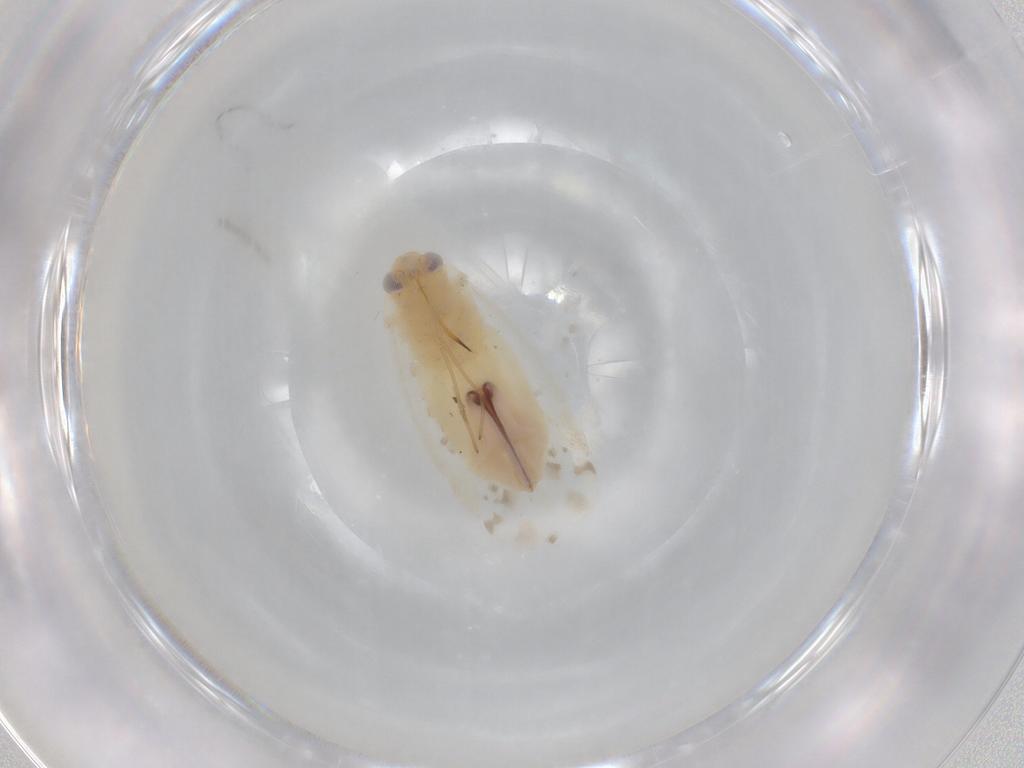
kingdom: Animalia
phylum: Arthropoda
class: Insecta
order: Hemiptera
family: Miridae
